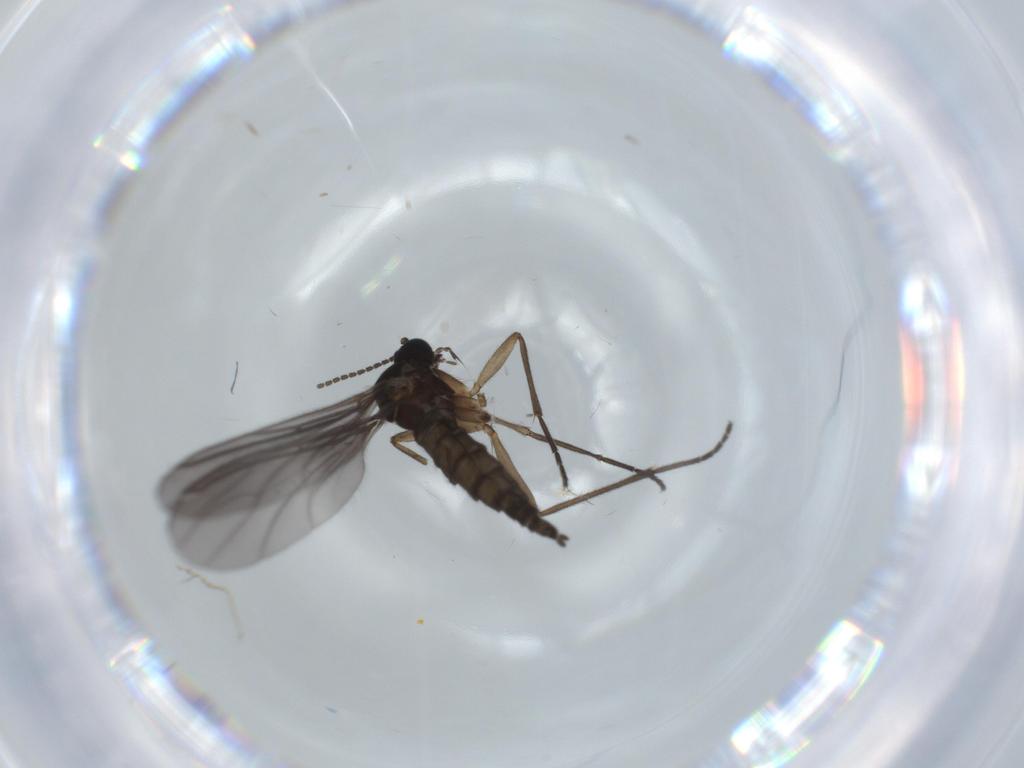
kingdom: Animalia
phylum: Arthropoda
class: Insecta
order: Diptera
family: Sciaridae
